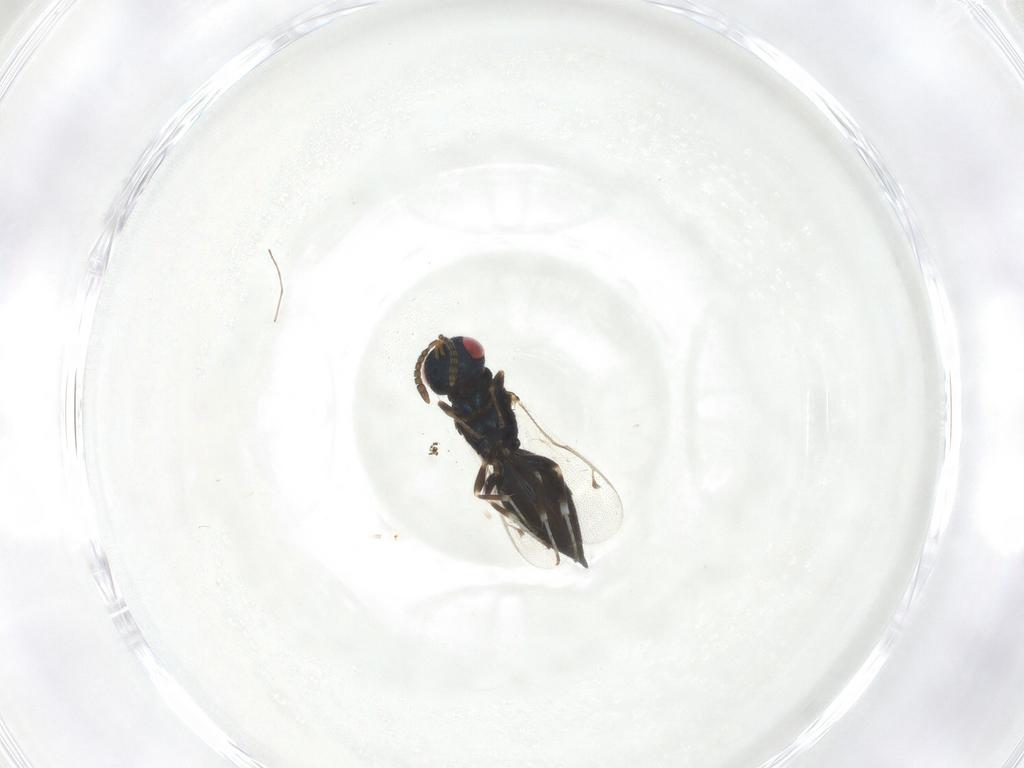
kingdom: Animalia
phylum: Arthropoda
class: Insecta
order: Hymenoptera
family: Pteromalidae
